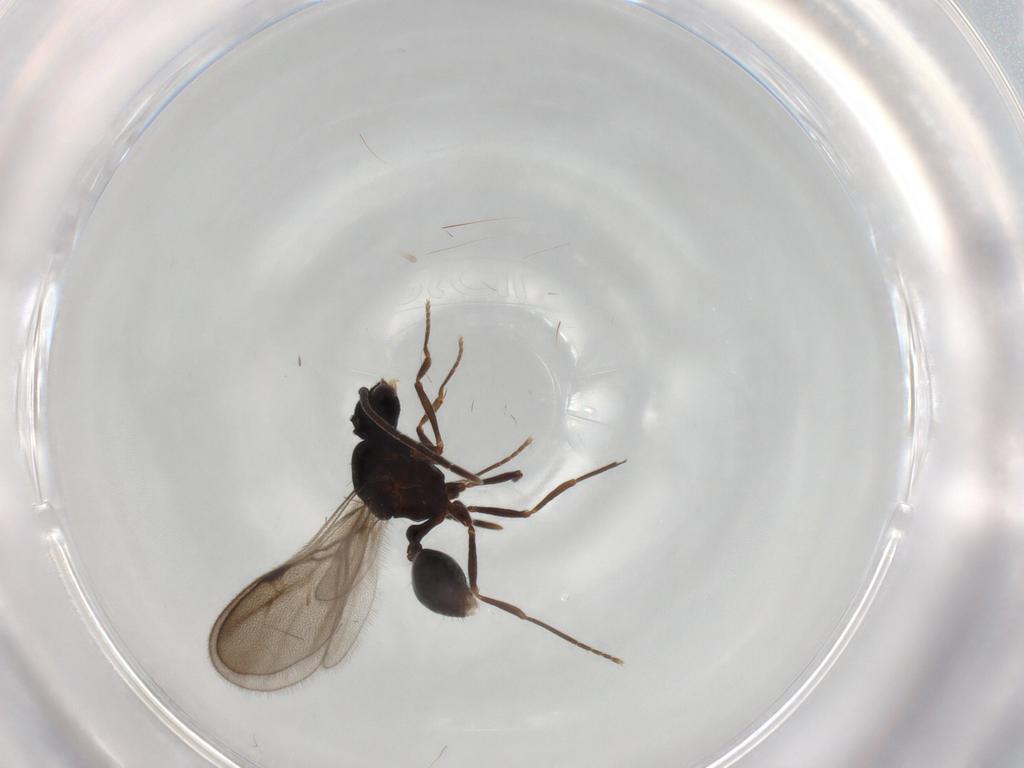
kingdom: Animalia
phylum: Arthropoda
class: Insecta
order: Hymenoptera
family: Formicidae
